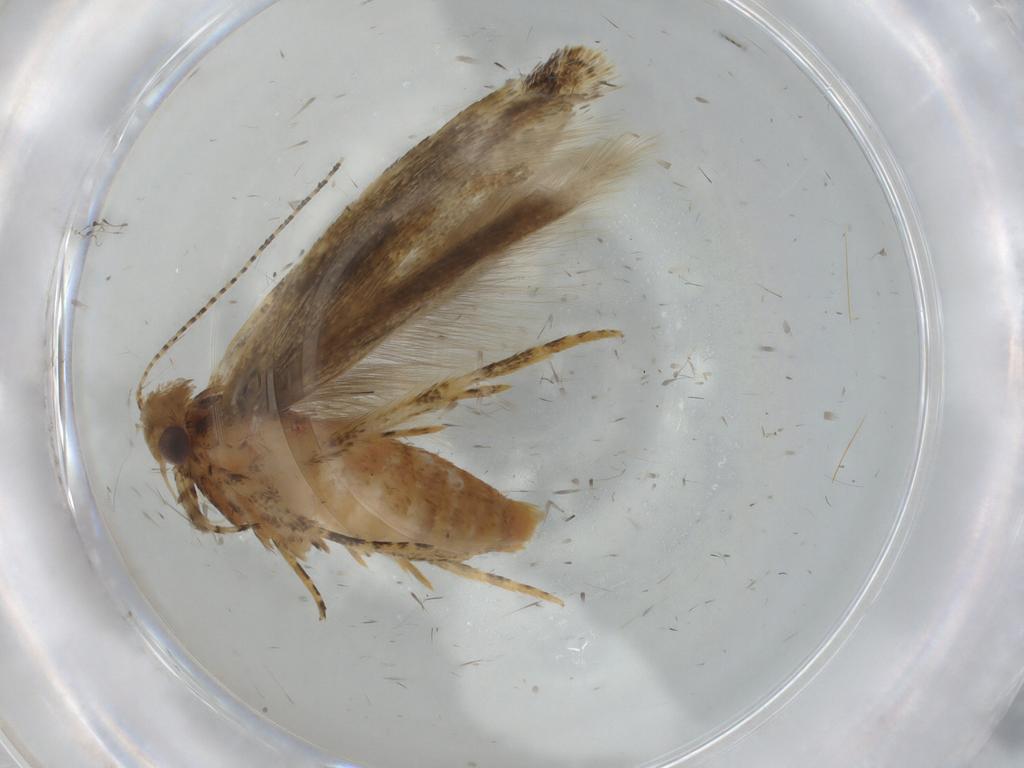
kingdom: Animalia
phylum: Arthropoda
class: Insecta
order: Lepidoptera
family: Gelechiidae
